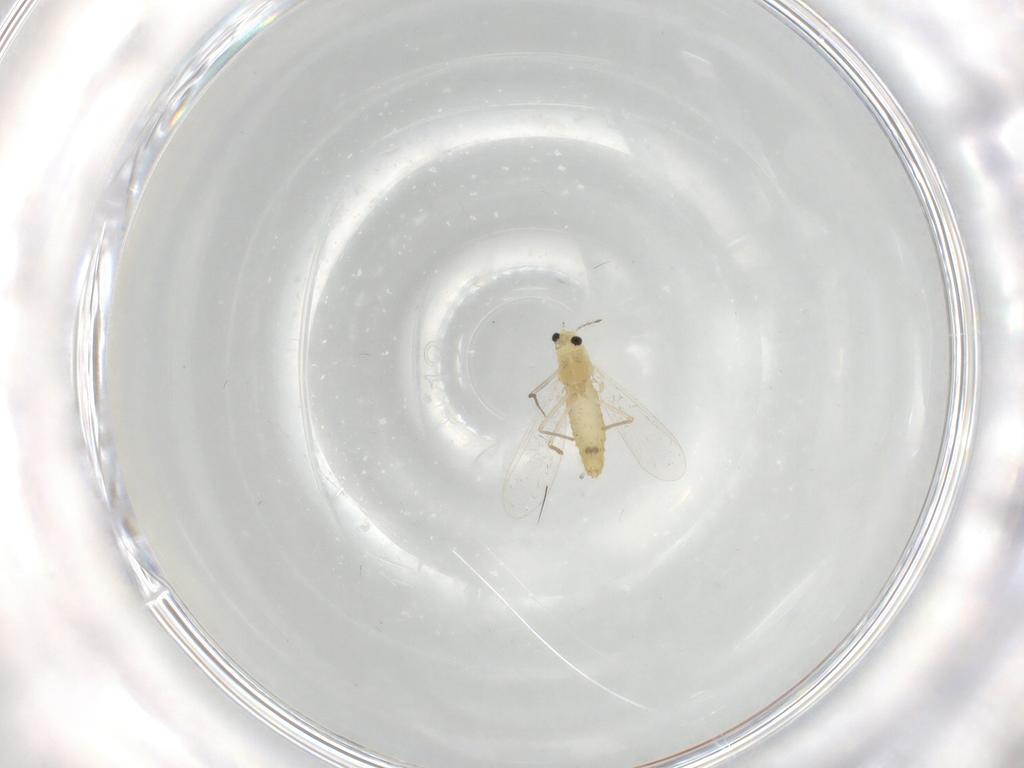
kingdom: Animalia
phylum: Arthropoda
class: Insecta
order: Diptera
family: Chironomidae
